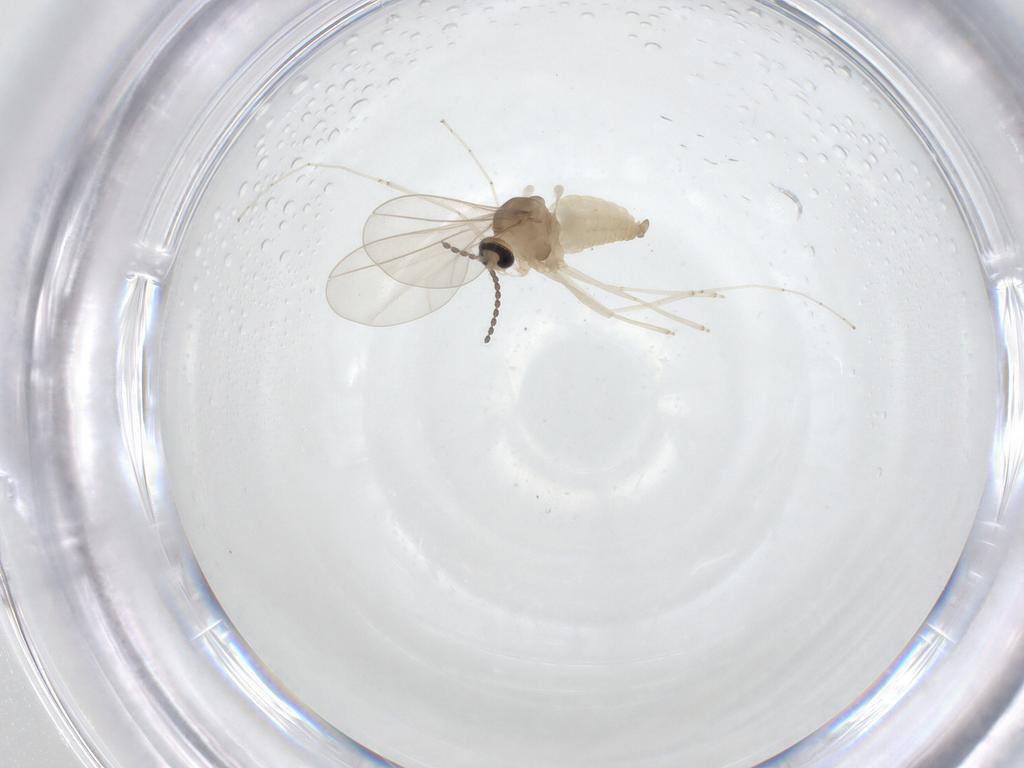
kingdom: Animalia
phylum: Arthropoda
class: Insecta
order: Diptera
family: Cecidomyiidae
